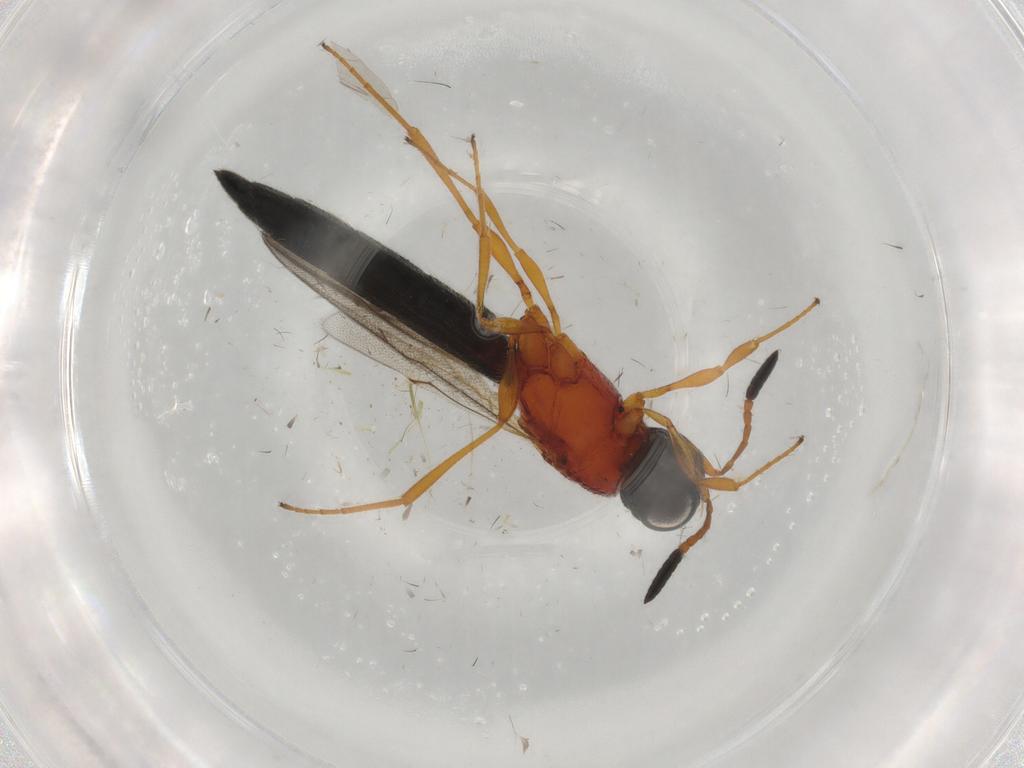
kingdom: Animalia
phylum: Arthropoda
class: Insecta
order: Hymenoptera
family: Scelionidae
